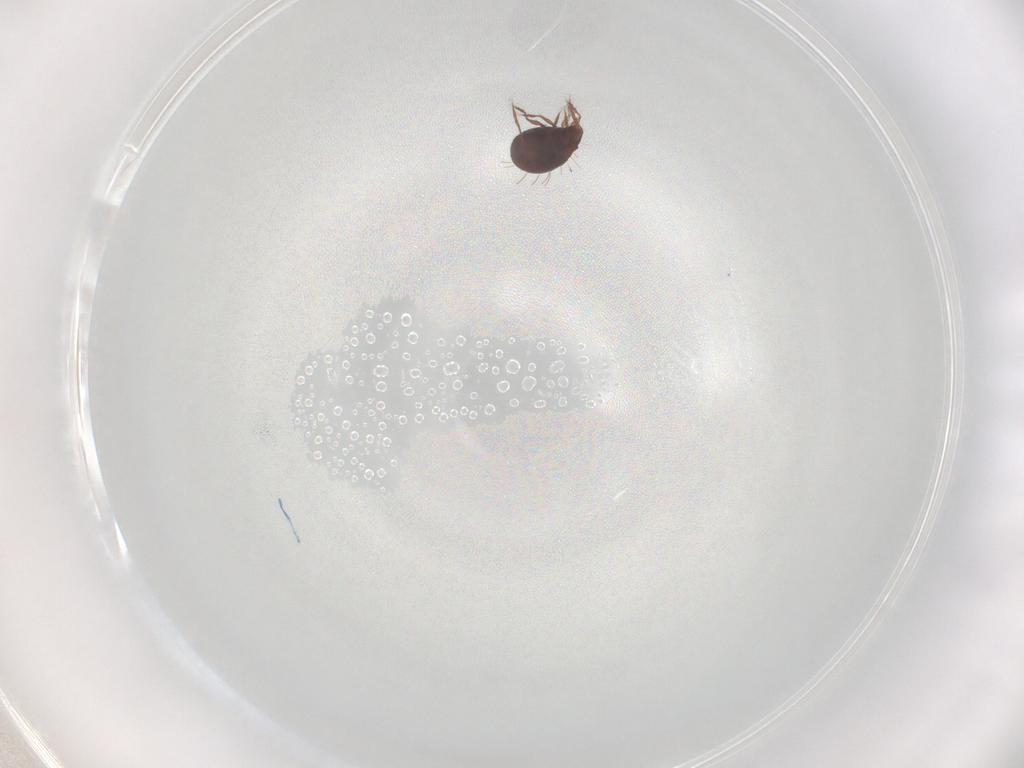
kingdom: Animalia
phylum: Arthropoda
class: Arachnida
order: Sarcoptiformes
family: Caloppiidae
